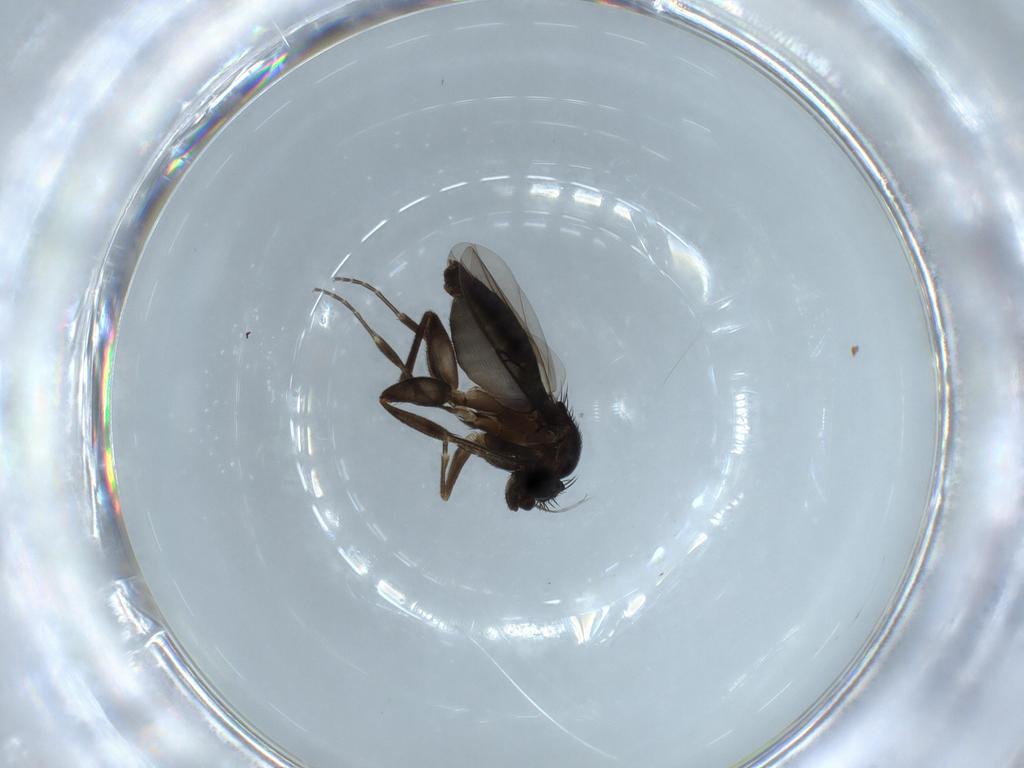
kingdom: Animalia
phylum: Arthropoda
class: Insecta
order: Diptera
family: Phoridae
